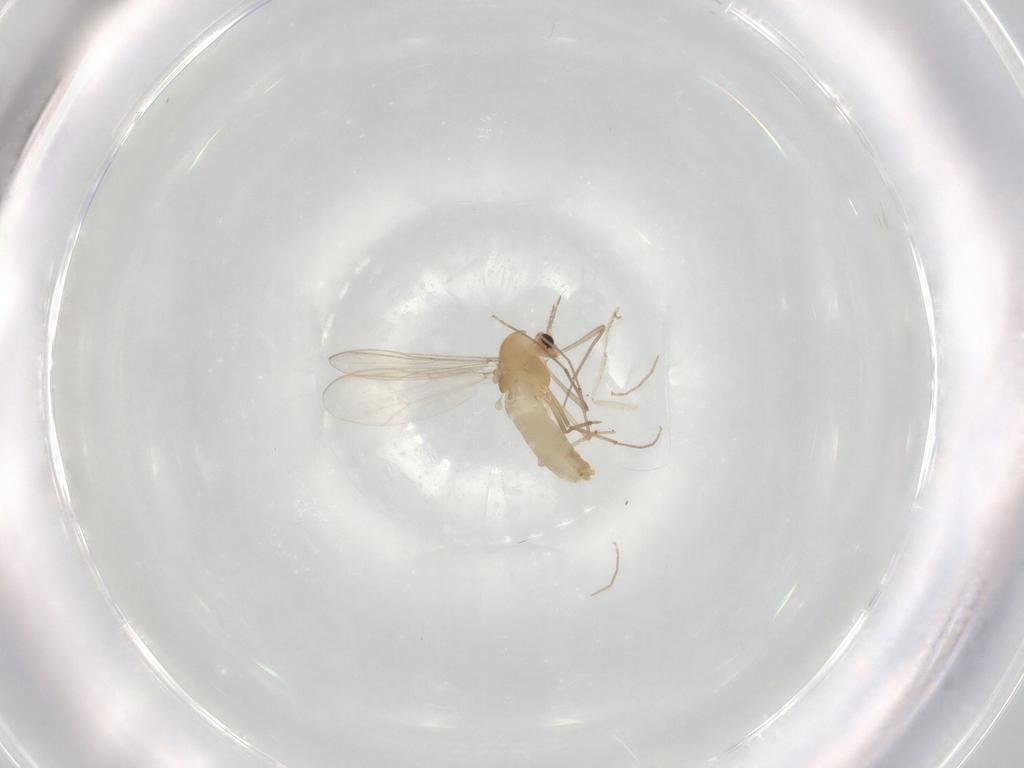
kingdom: Animalia
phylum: Arthropoda
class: Insecta
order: Diptera
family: Chironomidae
